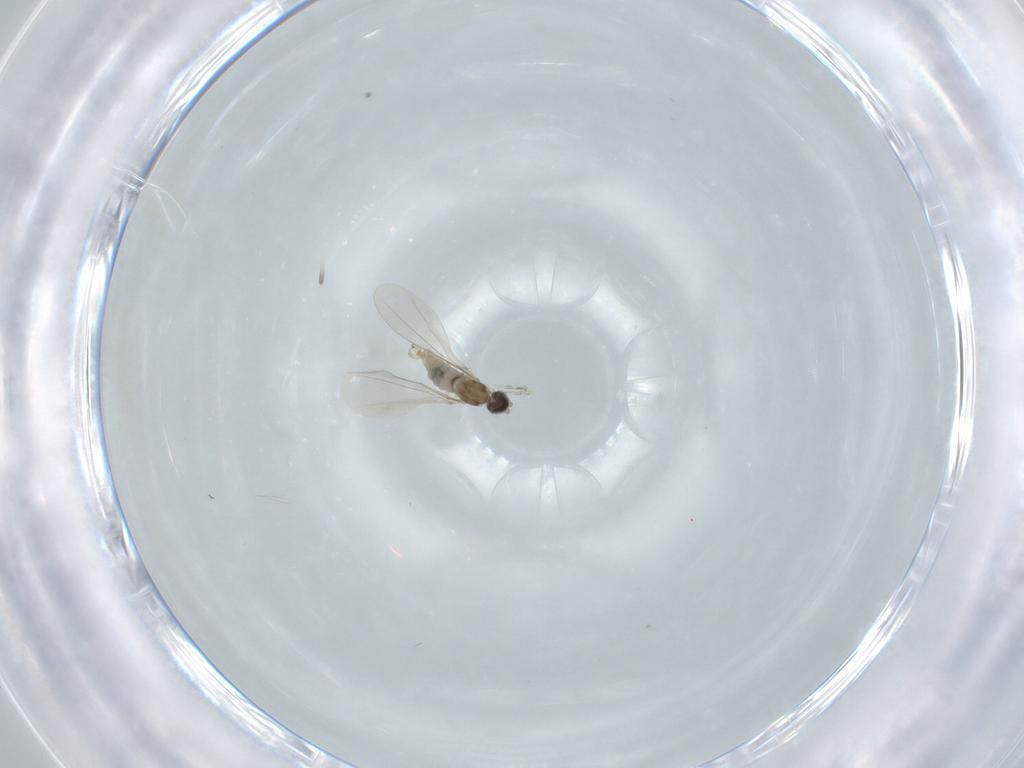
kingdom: Animalia
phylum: Arthropoda
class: Insecta
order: Diptera
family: Cecidomyiidae
